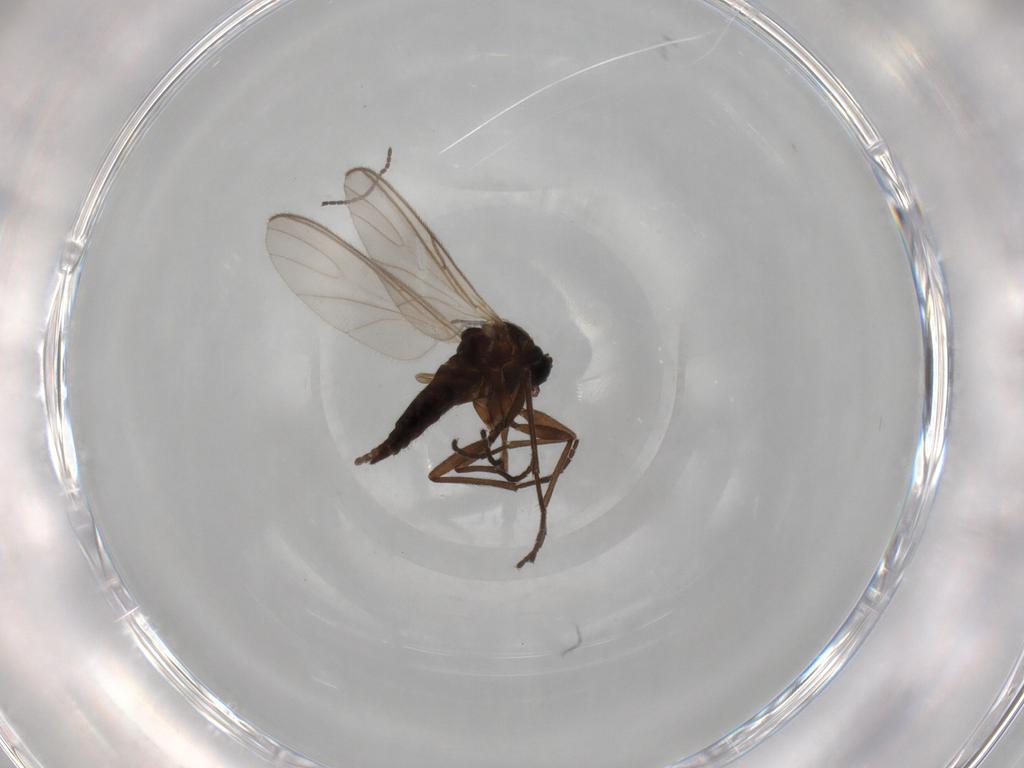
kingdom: Animalia
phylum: Arthropoda
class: Insecta
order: Diptera
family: Sciaridae
